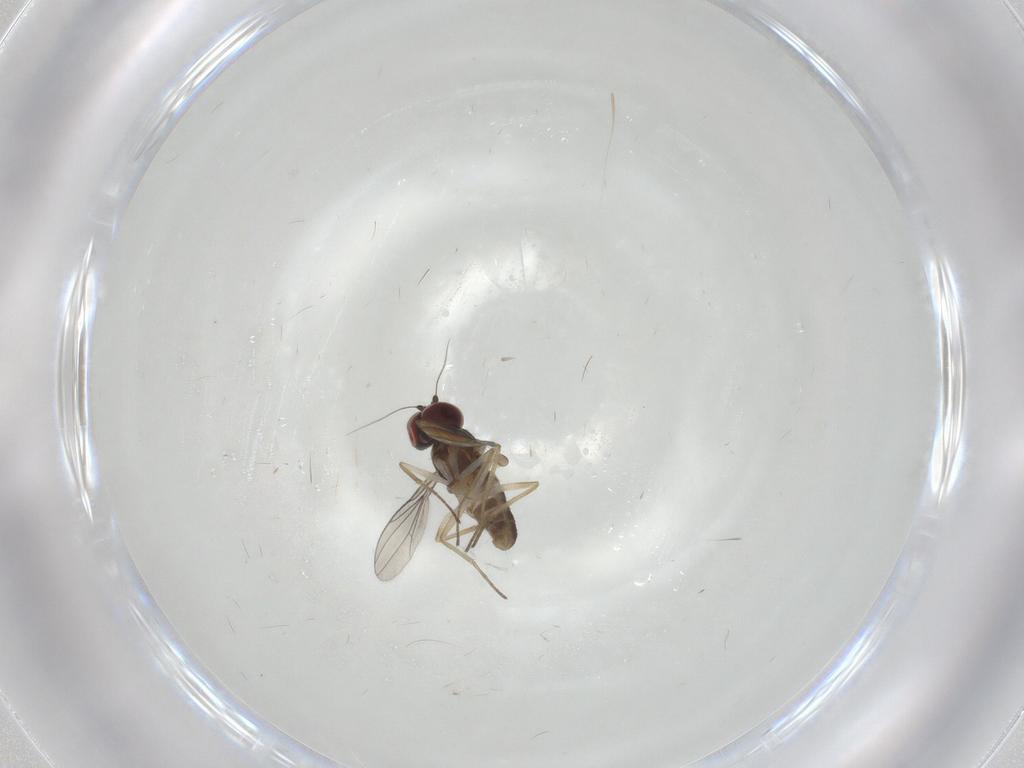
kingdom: Animalia
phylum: Arthropoda
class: Insecta
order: Diptera
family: Dolichopodidae
